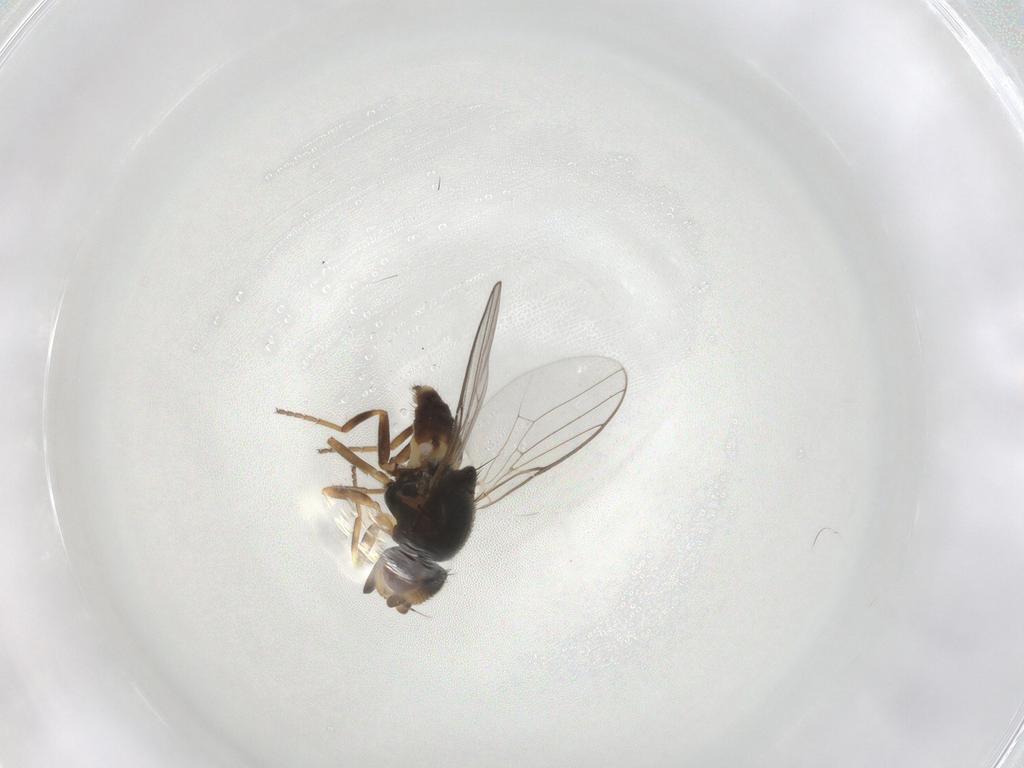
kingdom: Animalia
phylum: Arthropoda
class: Insecta
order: Diptera
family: Chloropidae
